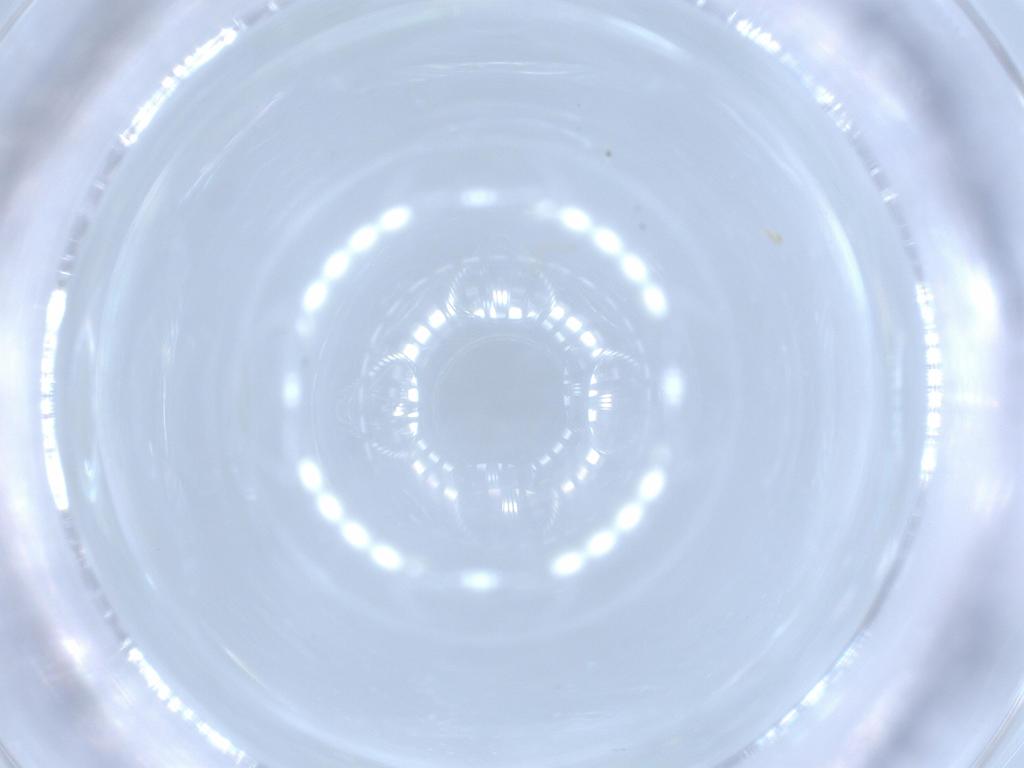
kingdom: Animalia
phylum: Arthropoda
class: Insecta
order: Diptera
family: Cecidomyiidae
